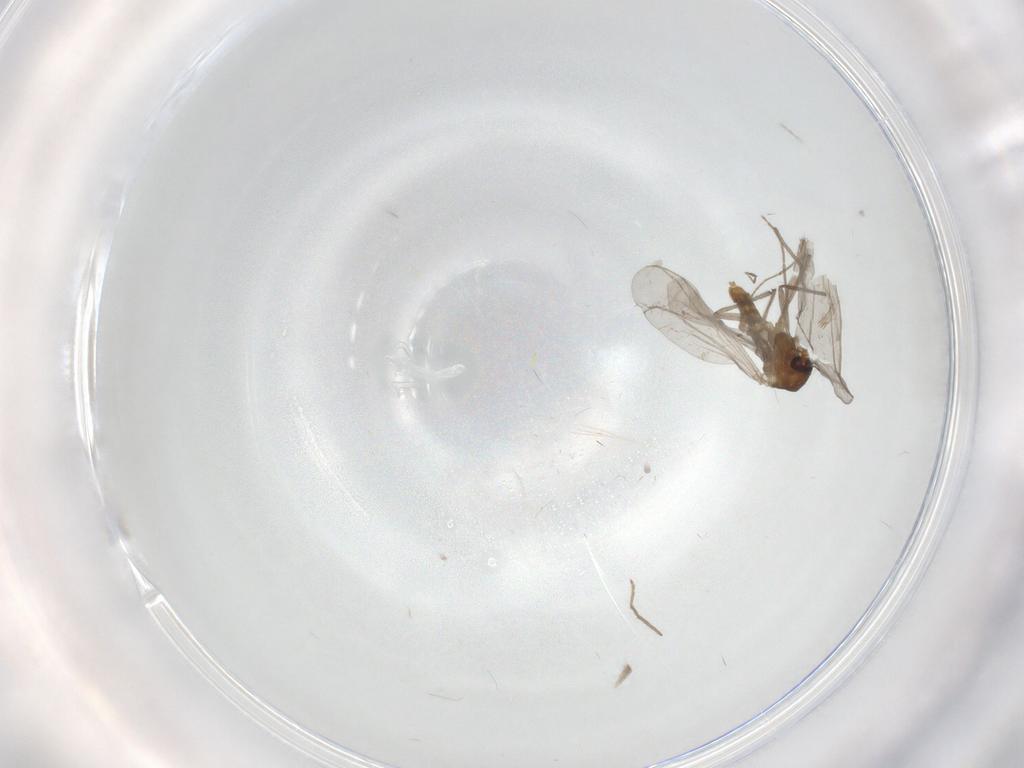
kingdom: Animalia
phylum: Arthropoda
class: Insecta
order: Diptera
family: Chironomidae
